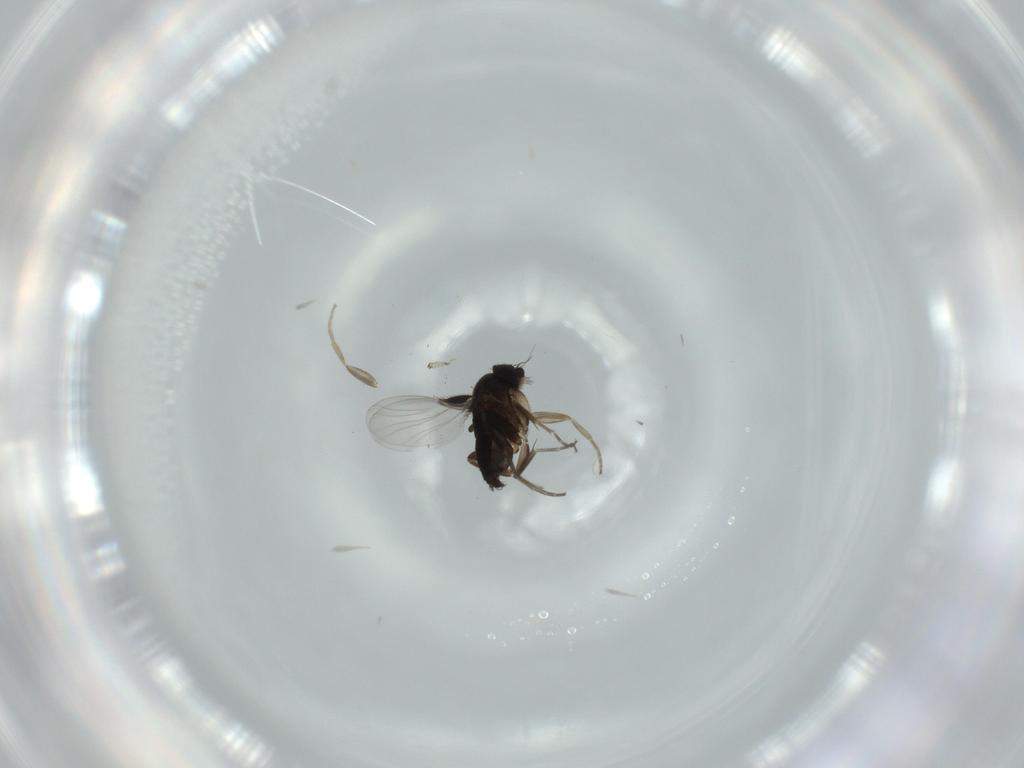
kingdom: Animalia
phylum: Arthropoda
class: Insecta
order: Diptera
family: Phoridae
